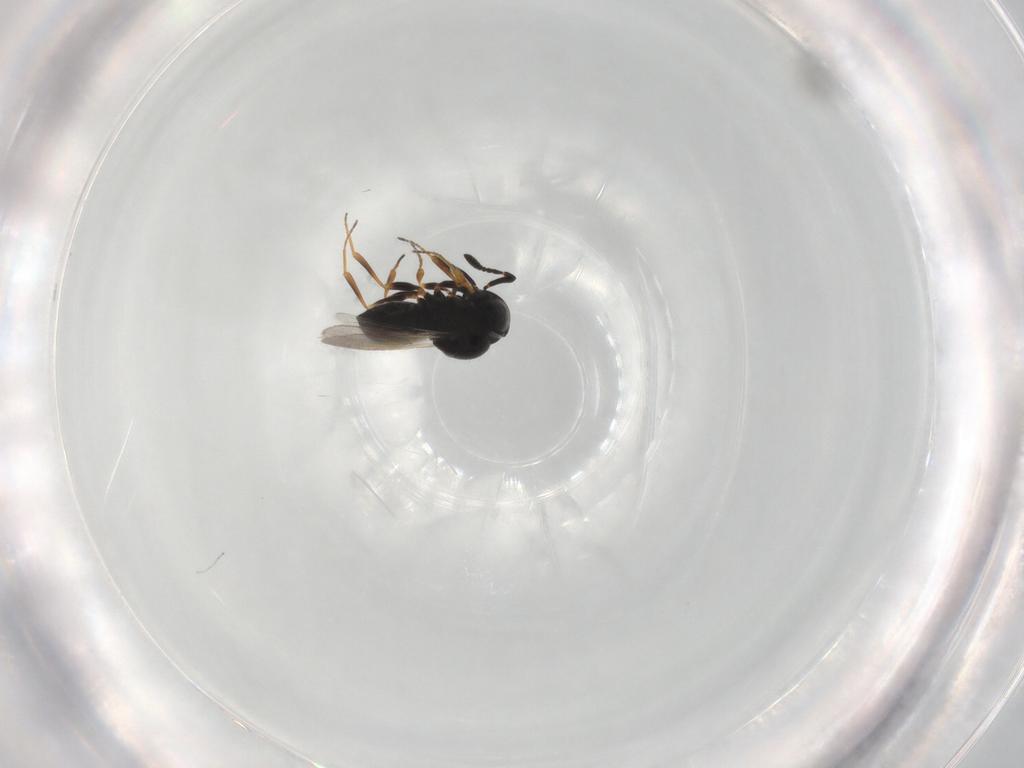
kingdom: Animalia
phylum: Arthropoda
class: Insecta
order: Hymenoptera
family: Scelionidae
